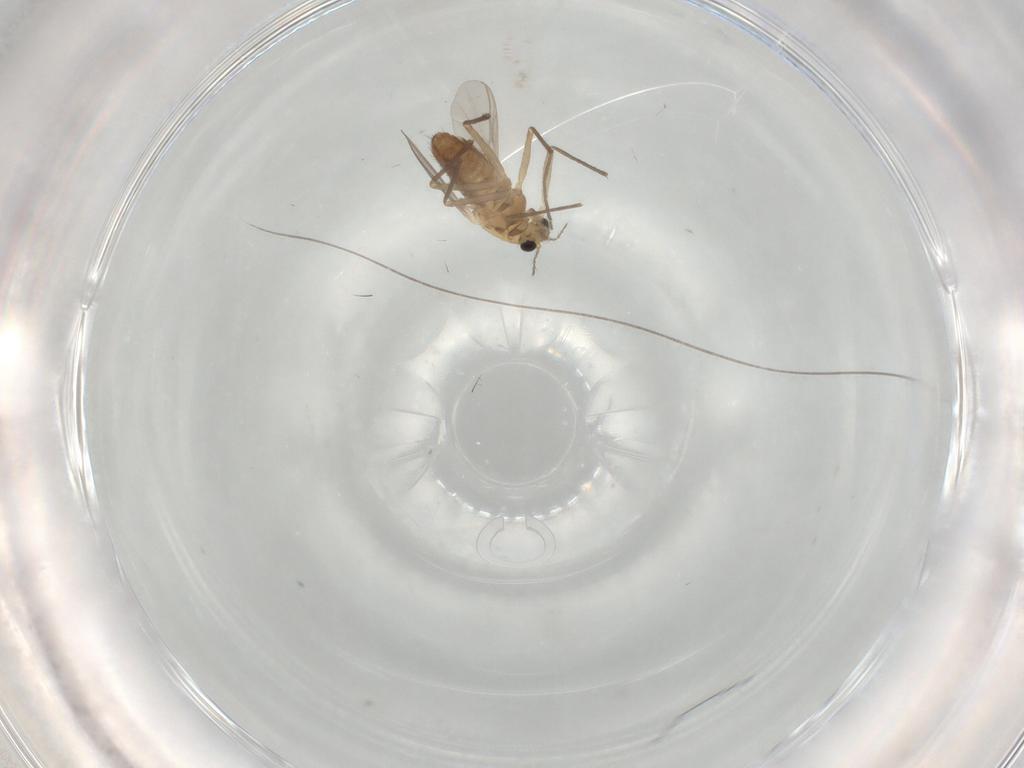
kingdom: Animalia
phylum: Arthropoda
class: Insecta
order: Diptera
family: Chironomidae
